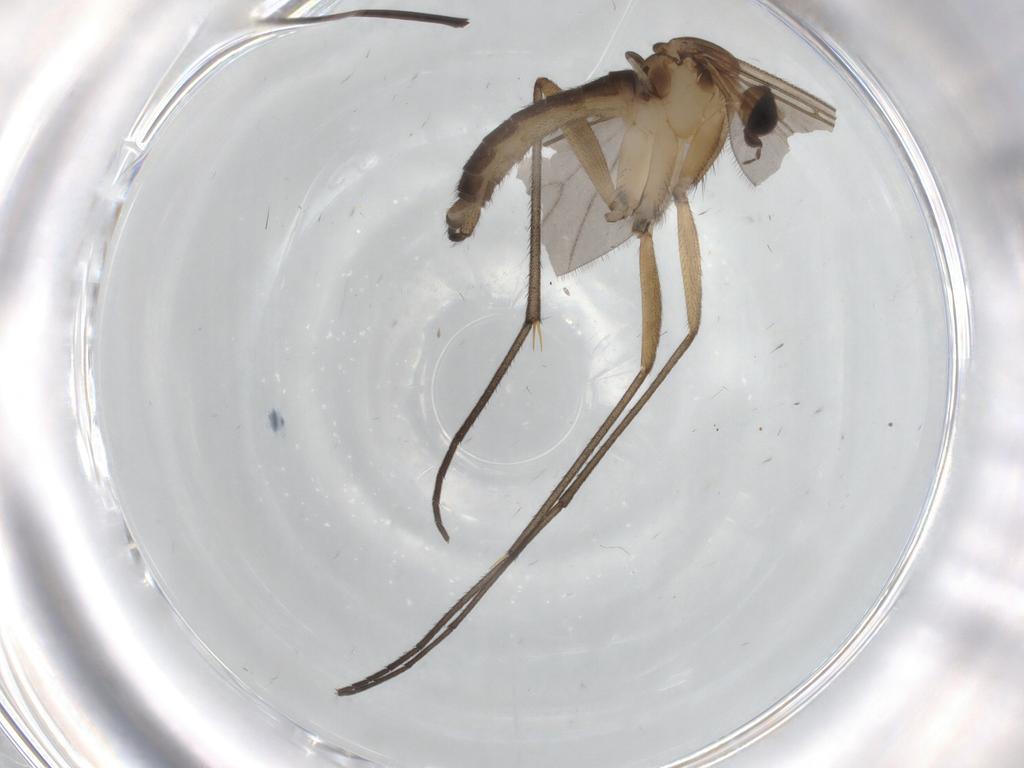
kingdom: Animalia
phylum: Arthropoda
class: Insecta
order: Diptera
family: Sciaridae
